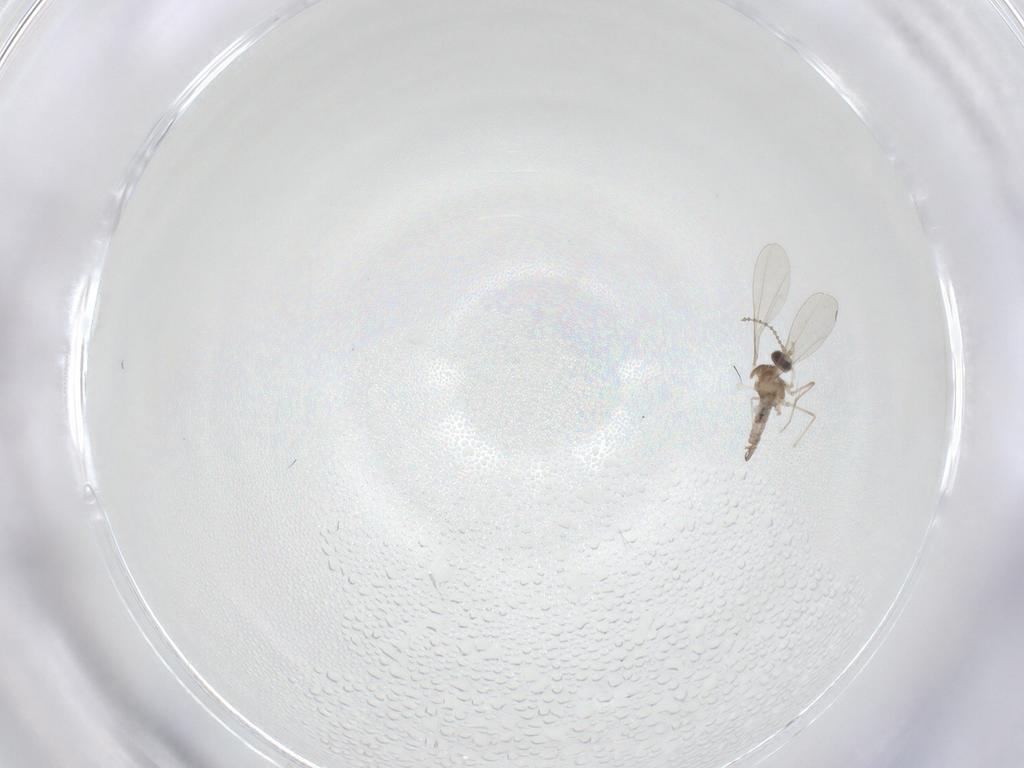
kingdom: Animalia
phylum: Arthropoda
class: Insecta
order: Diptera
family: Cecidomyiidae
